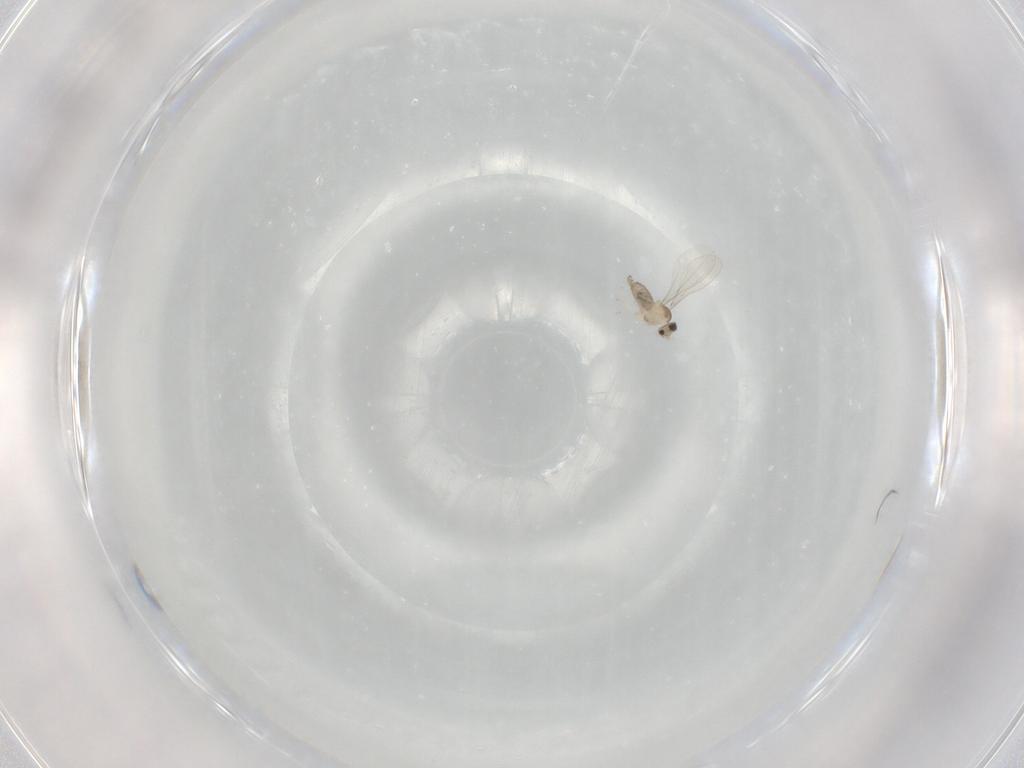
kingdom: Animalia
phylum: Arthropoda
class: Insecta
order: Diptera
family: Cecidomyiidae
